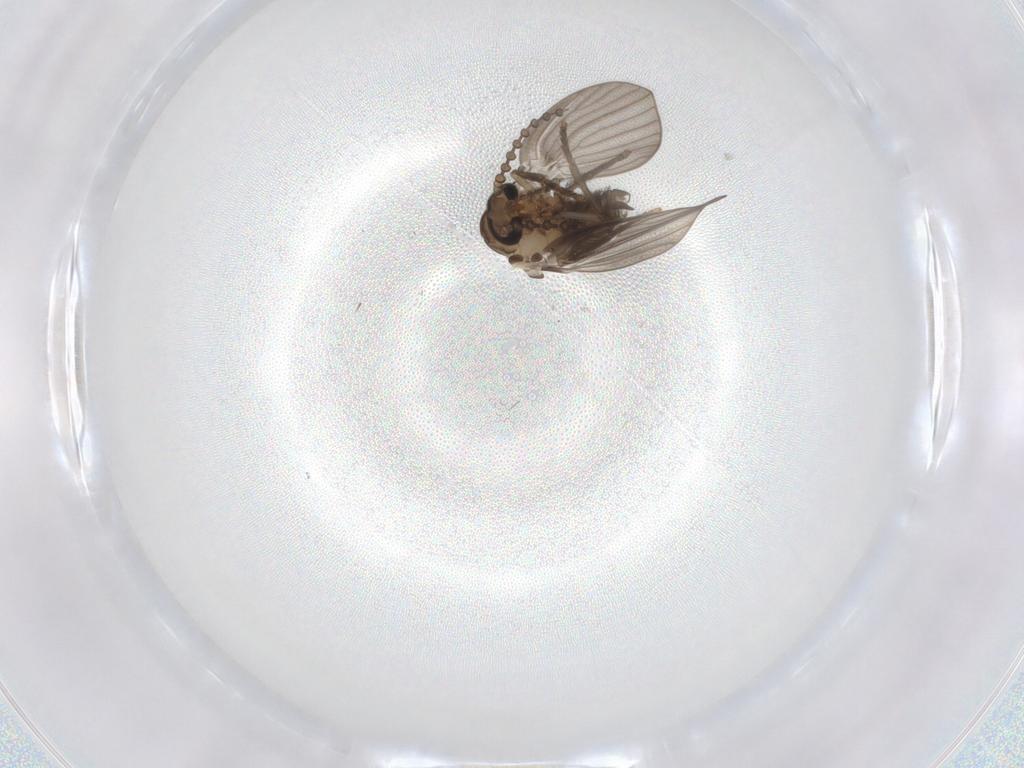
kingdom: Animalia
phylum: Arthropoda
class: Insecta
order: Diptera
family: Psychodidae
